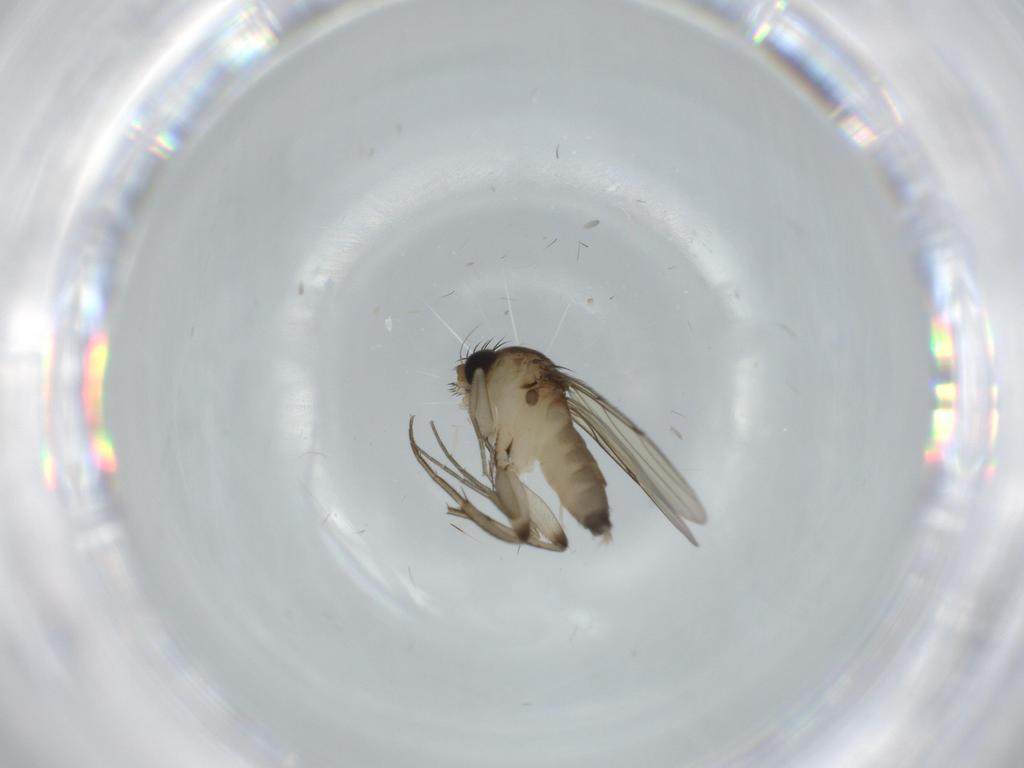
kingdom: Animalia
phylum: Arthropoda
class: Insecta
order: Diptera
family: Phoridae
